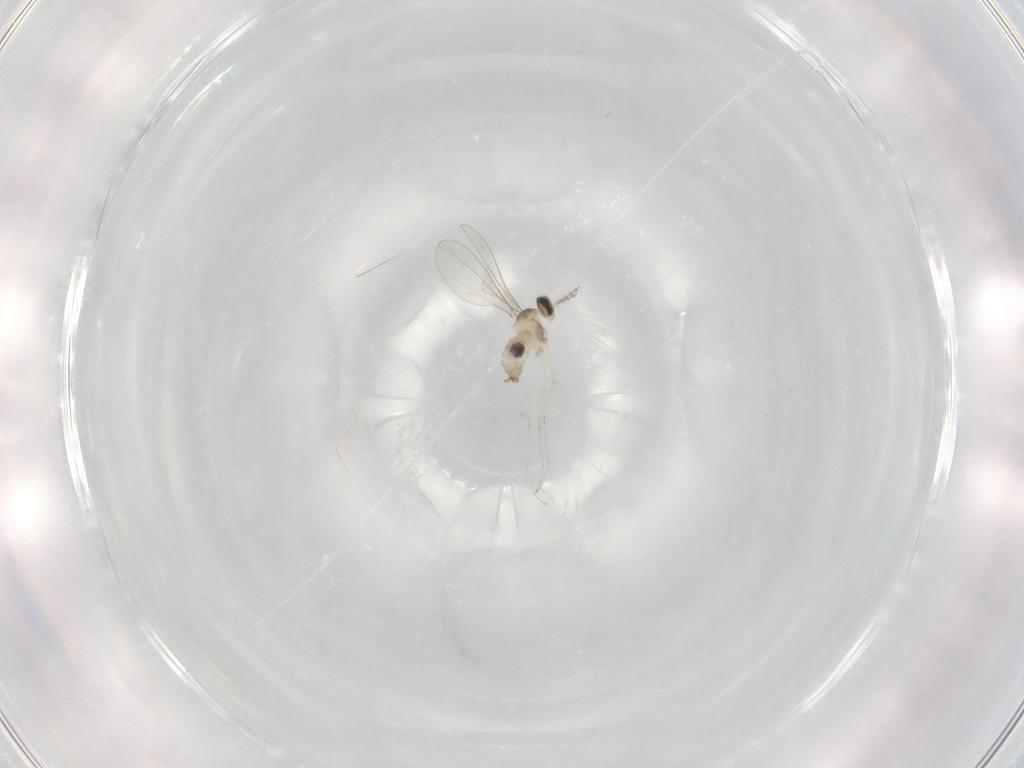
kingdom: Animalia
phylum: Arthropoda
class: Insecta
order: Diptera
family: Cecidomyiidae
